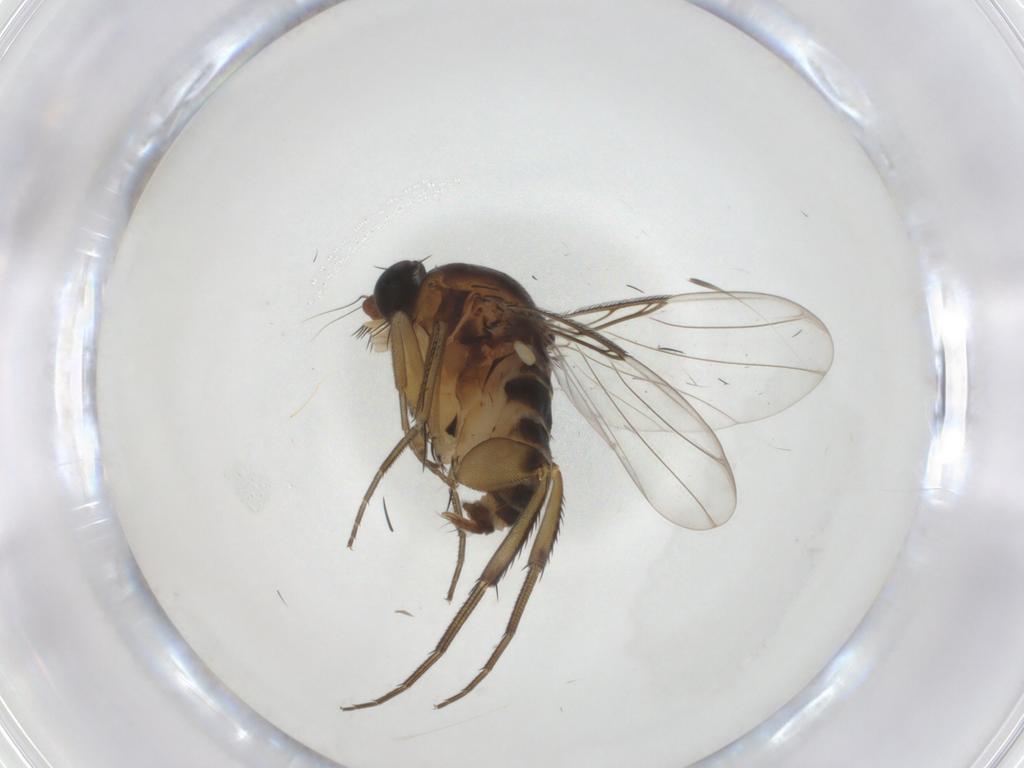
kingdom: Animalia
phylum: Arthropoda
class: Insecta
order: Diptera
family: Phoridae
